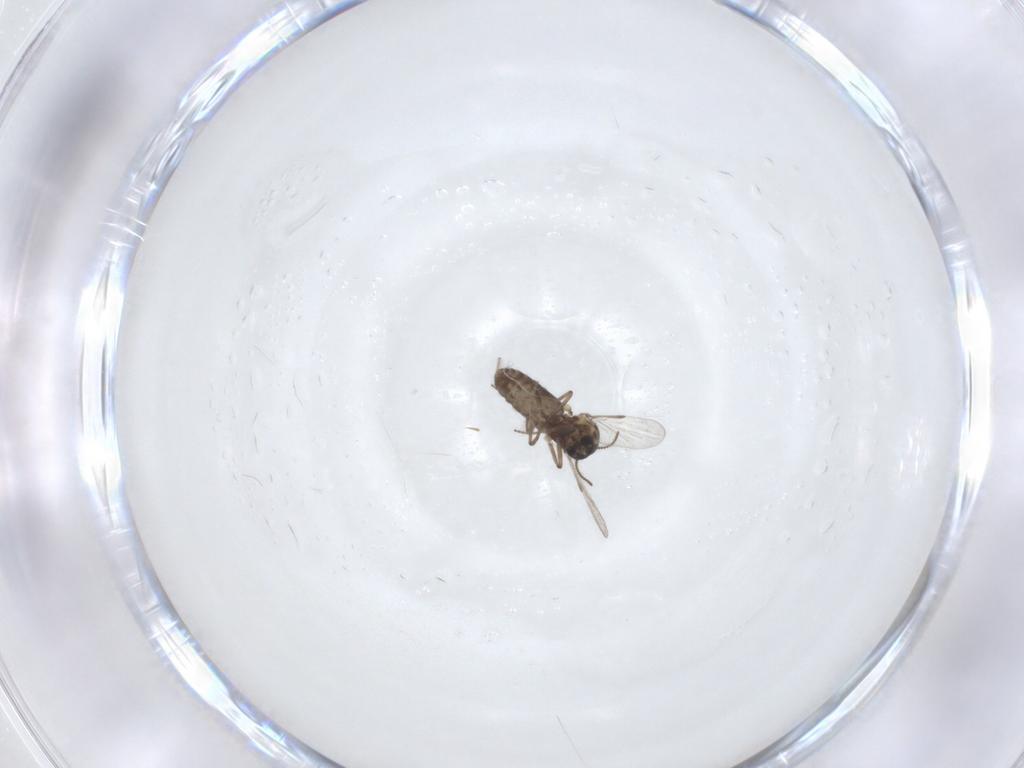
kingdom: Animalia
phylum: Arthropoda
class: Insecta
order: Diptera
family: Ceratopogonidae
